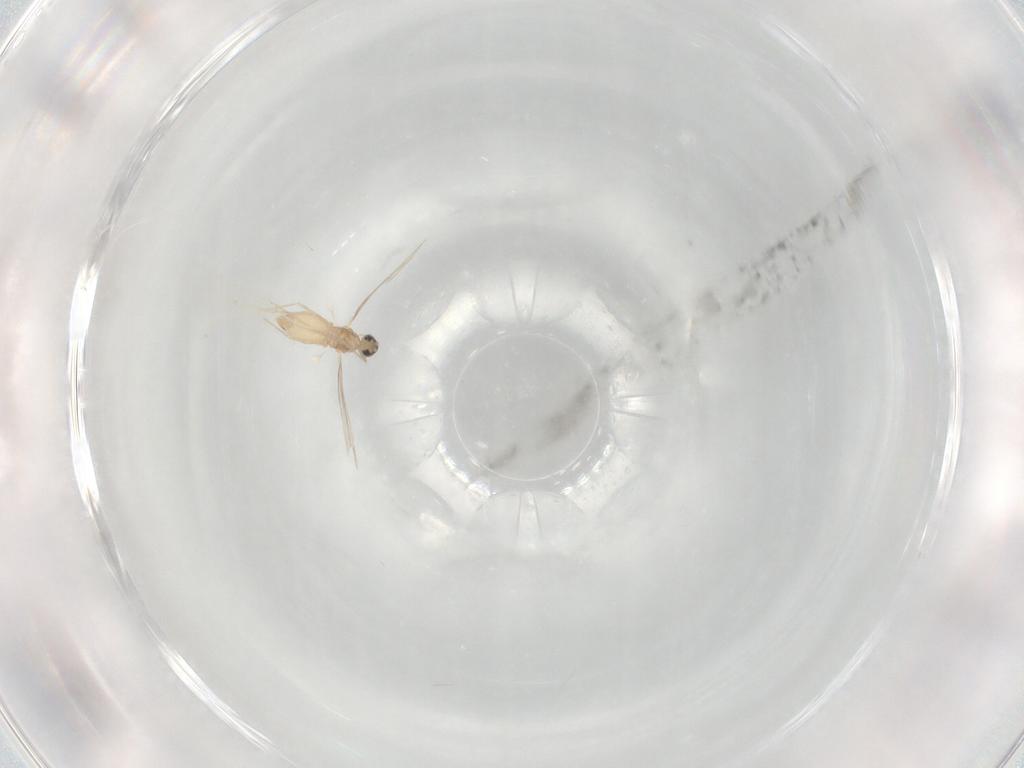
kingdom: Animalia
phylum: Arthropoda
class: Insecta
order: Diptera
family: Cecidomyiidae
